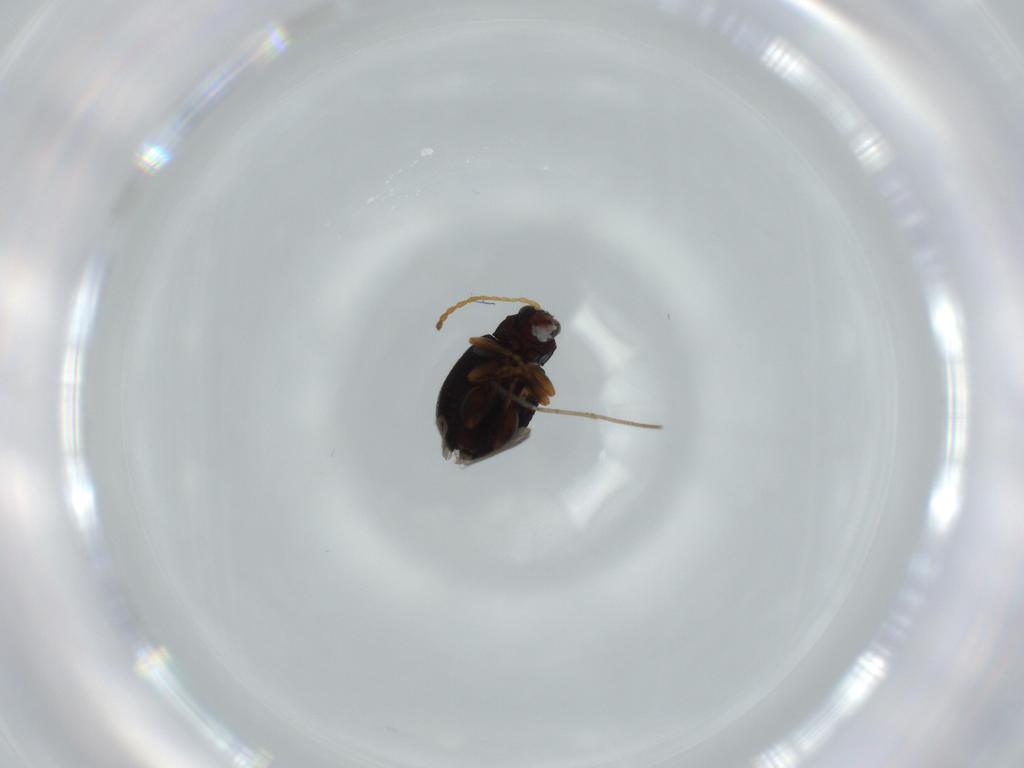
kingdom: Animalia
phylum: Arthropoda
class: Insecta
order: Coleoptera
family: Chrysomelidae
